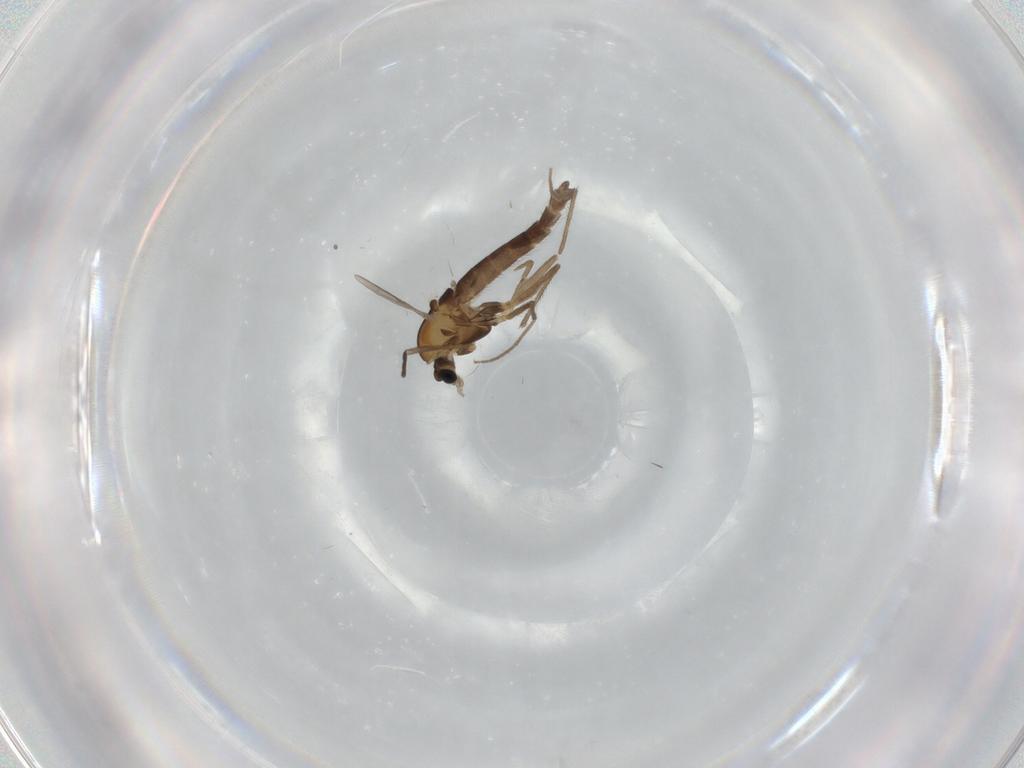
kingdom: Animalia
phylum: Arthropoda
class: Insecta
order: Diptera
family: Chironomidae
